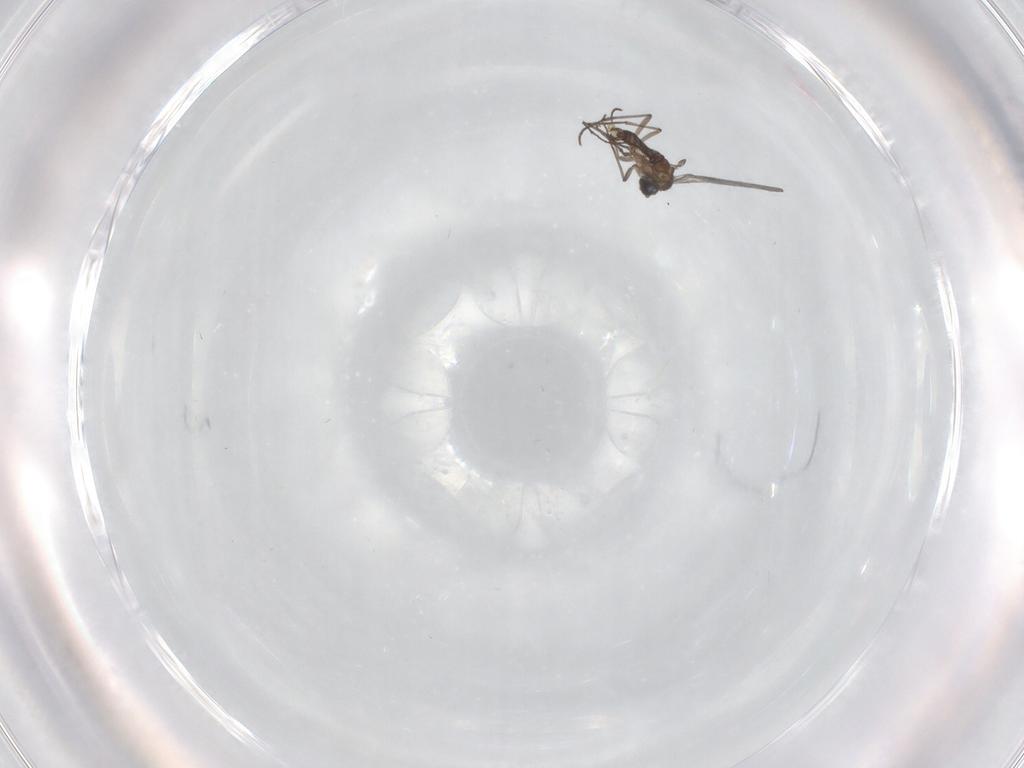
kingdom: Animalia
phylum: Arthropoda
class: Insecta
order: Diptera
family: Sciaridae
